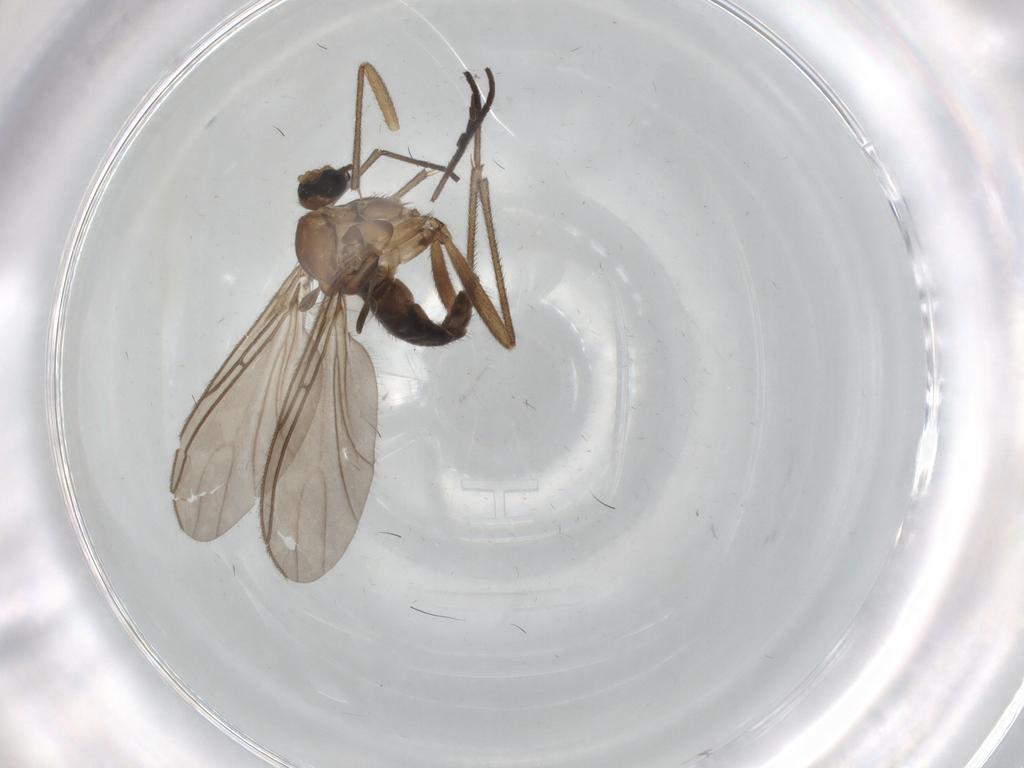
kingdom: Animalia
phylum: Arthropoda
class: Insecta
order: Diptera
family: Sciaridae
